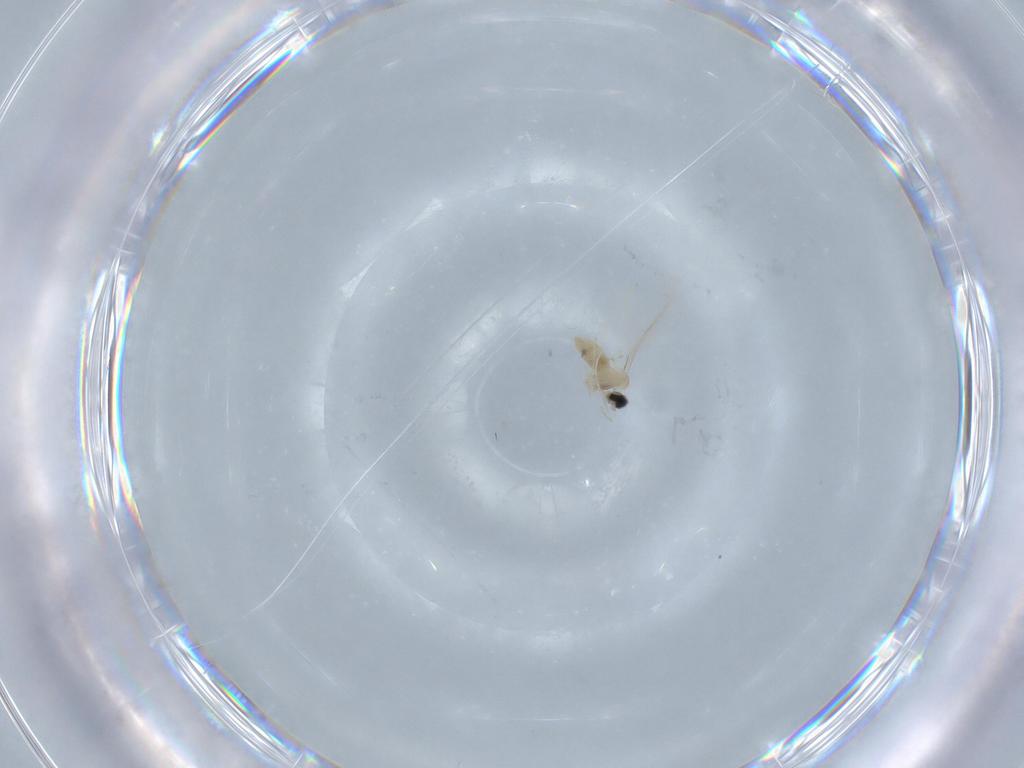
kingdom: Animalia
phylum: Arthropoda
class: Insecta
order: Diptera
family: Cecidomyiidae
